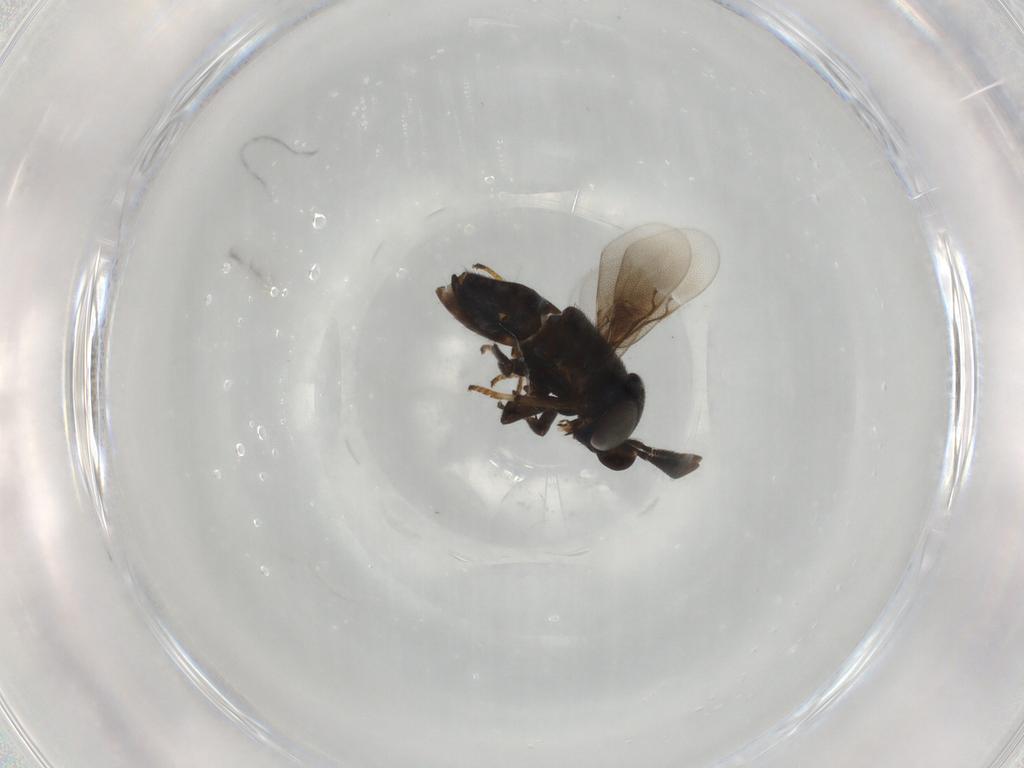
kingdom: Animalia
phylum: Arthropoda
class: Insecta
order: Hymenoptera
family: Encyrtidae
